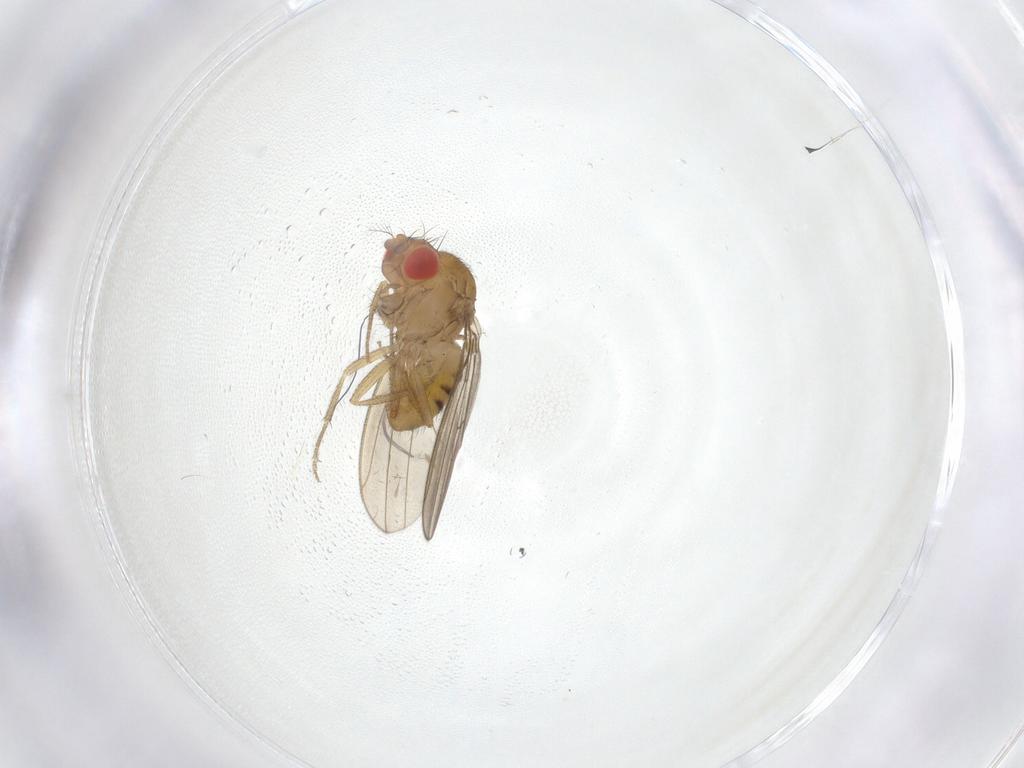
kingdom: Animalia
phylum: Arthropoda
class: Insecta
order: Diptera
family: Drosophilidae
